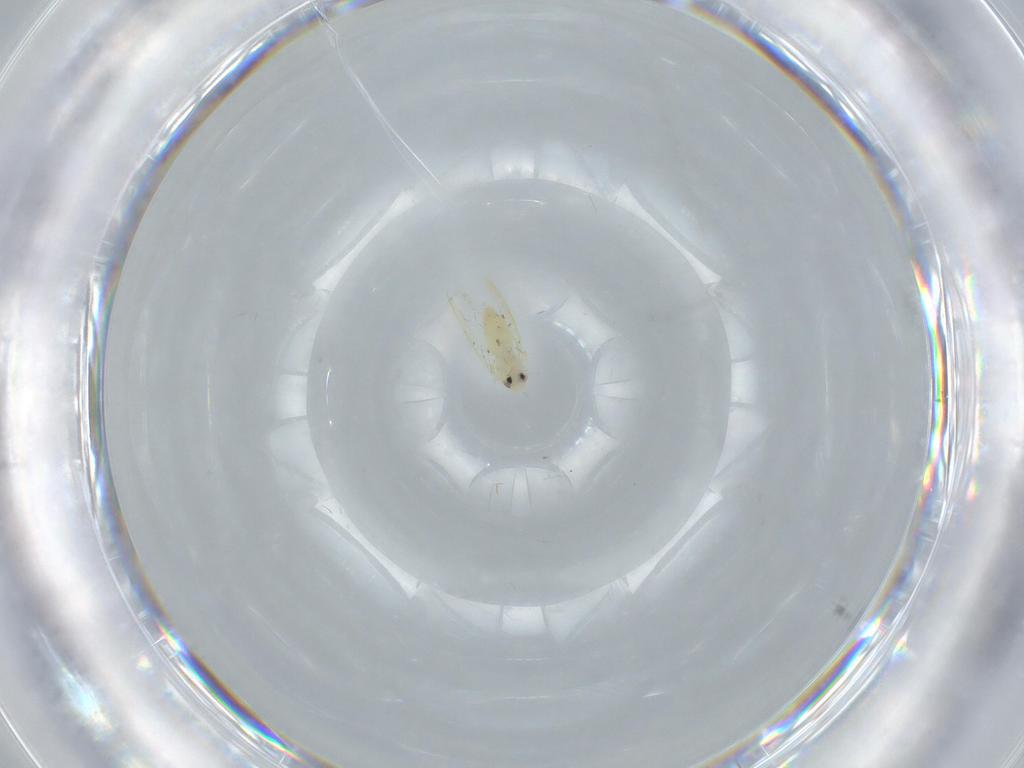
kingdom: Animalia
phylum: Arthropoda
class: Insecta
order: Hemiptera
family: Aleyrodidae
